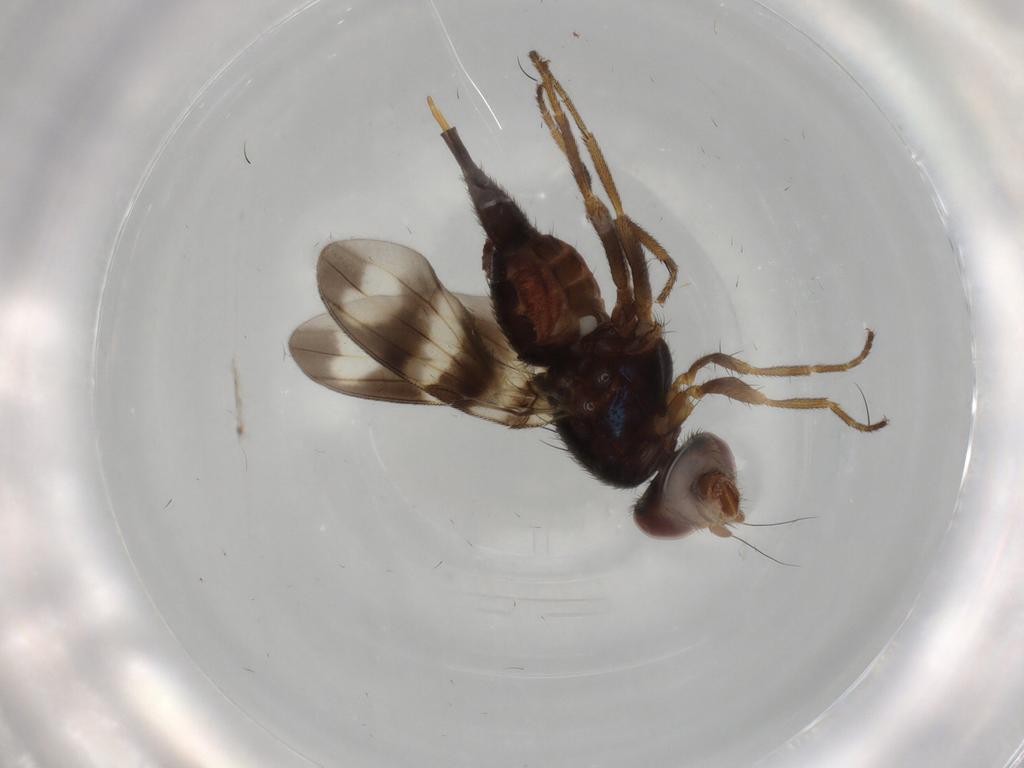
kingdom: Animalia
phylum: Arthropoda
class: Insecta
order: Diptera
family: Ulidiidae
